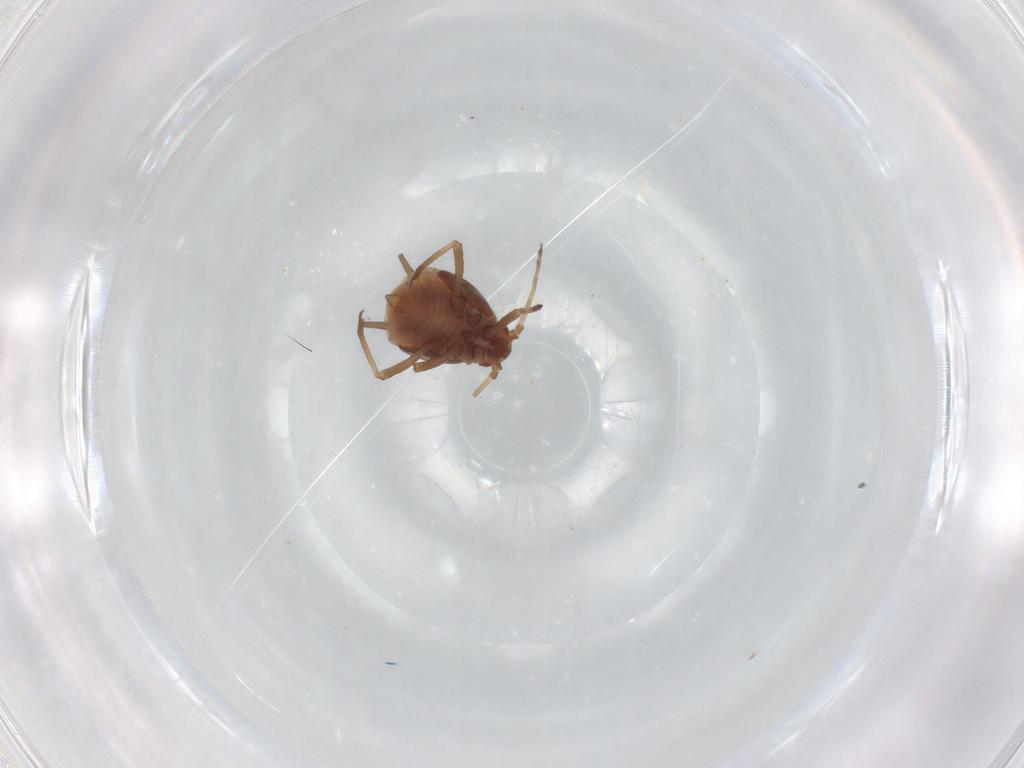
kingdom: Animalia
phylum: Arthropoda
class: Insecta
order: Hemiptera
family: Aphididae
